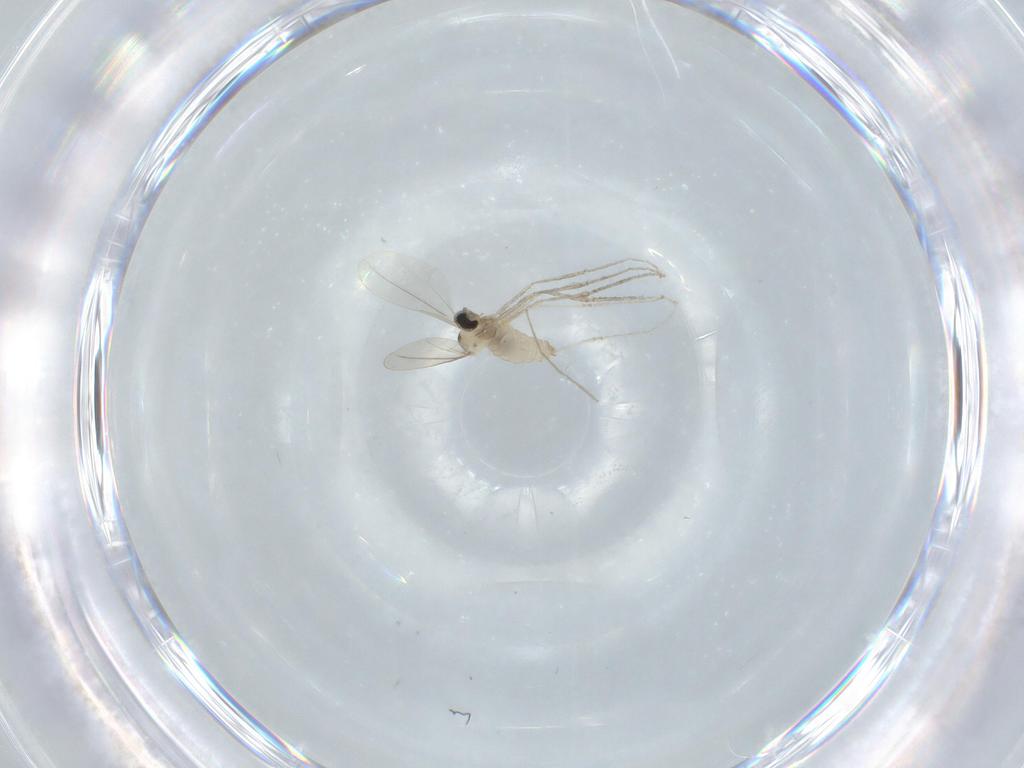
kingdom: Animalia
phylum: Arthropoda
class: Insecta
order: Diptera
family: Cecidomyiidae
